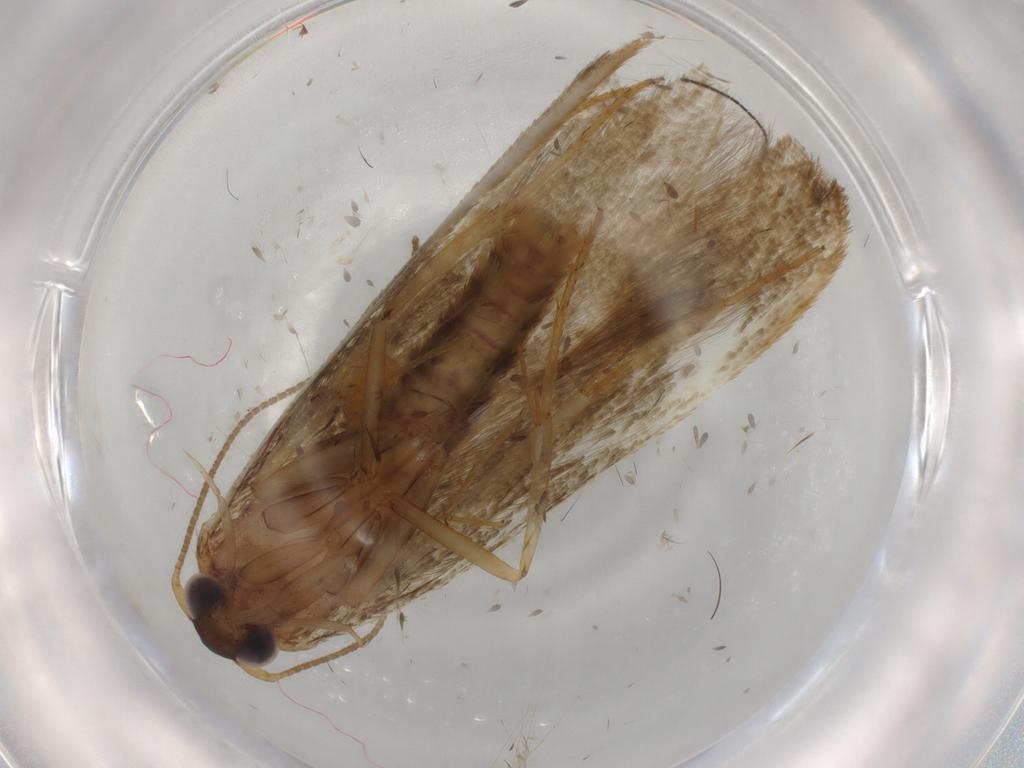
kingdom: Animalia
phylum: Arthropoda
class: Insecta
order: Lepidoptera
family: Blastobasidae
